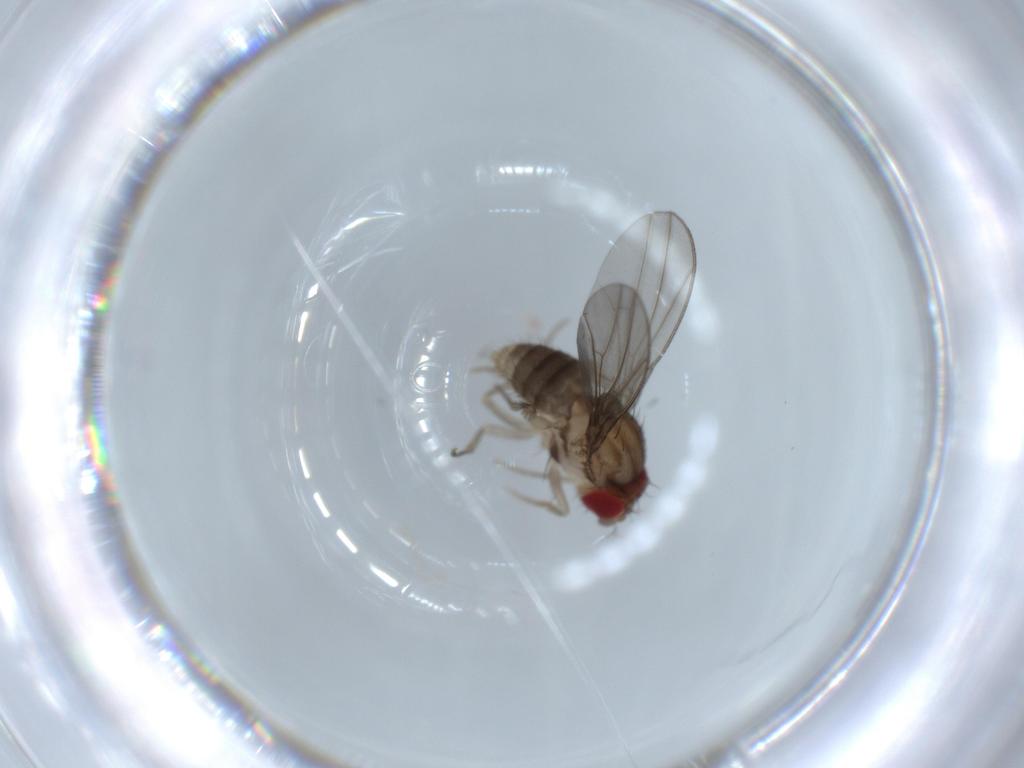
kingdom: Animalia
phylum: Arthropoda
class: Insecta
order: Diptera
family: Drosophilidae
